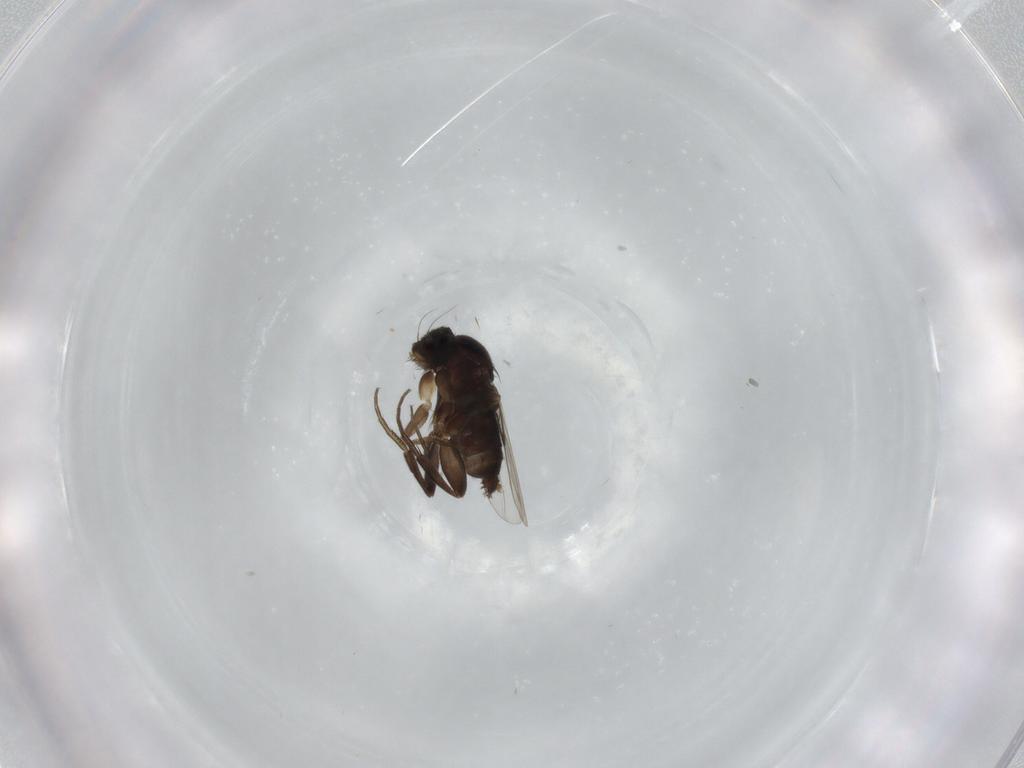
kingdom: Animalia
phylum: Arthropoda
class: Insecta
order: Diptera
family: Phoridae
